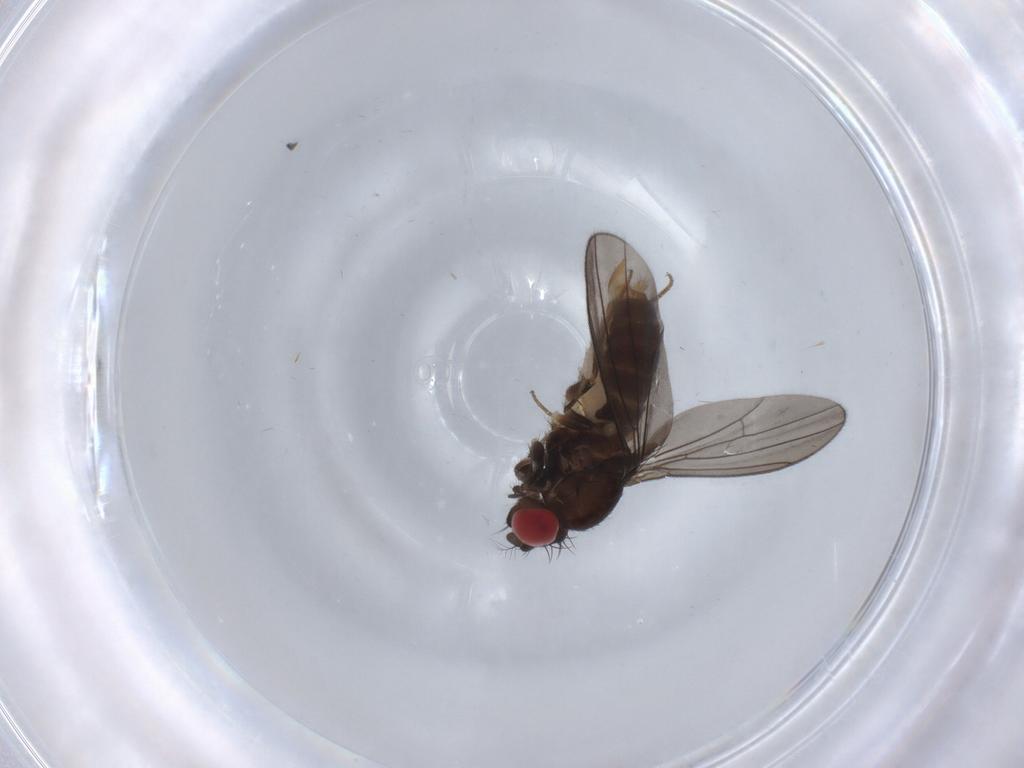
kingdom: Animalia
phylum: Arthropoda
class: Insecta
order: Diptera
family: Drosophilidae
